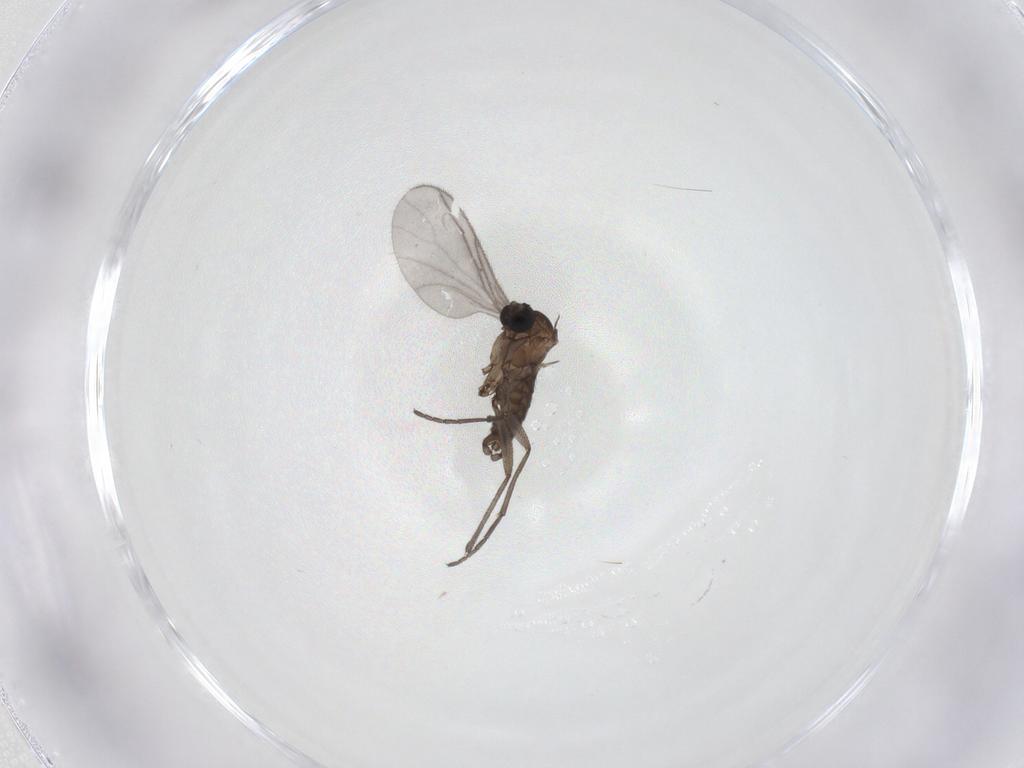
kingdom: Animalia
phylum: Arthropoda
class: Insecta
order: Diptera
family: Sciaridae
